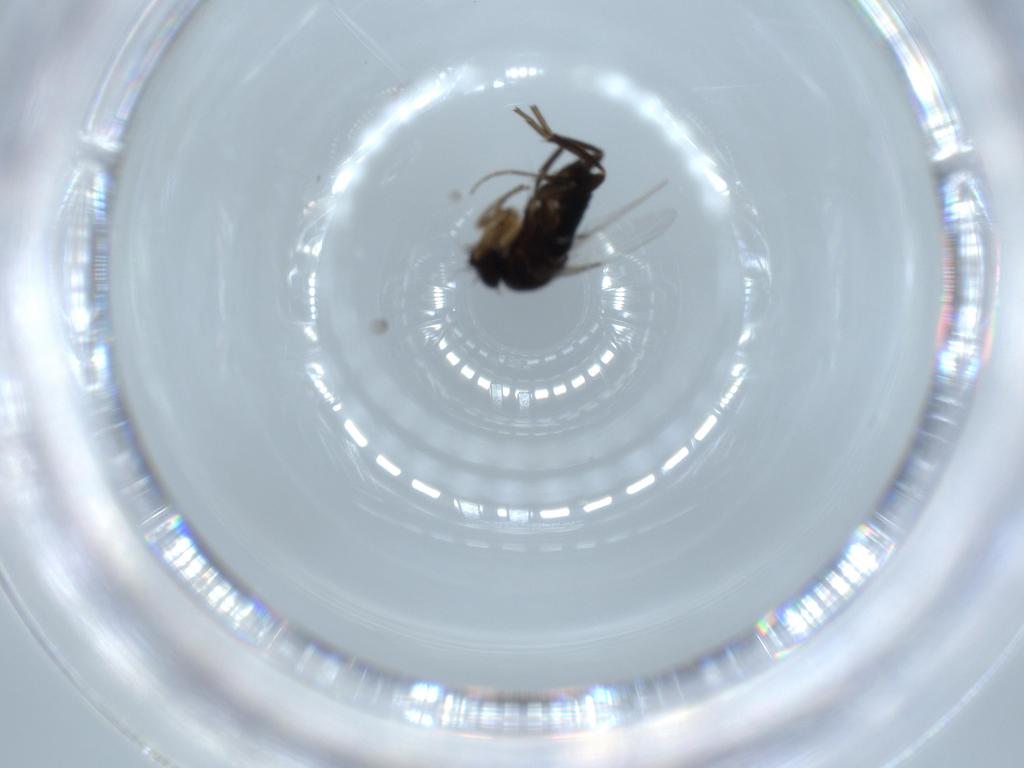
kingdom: Animalia
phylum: Arthropoda
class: Insecta
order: Diptera
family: Phoridae
